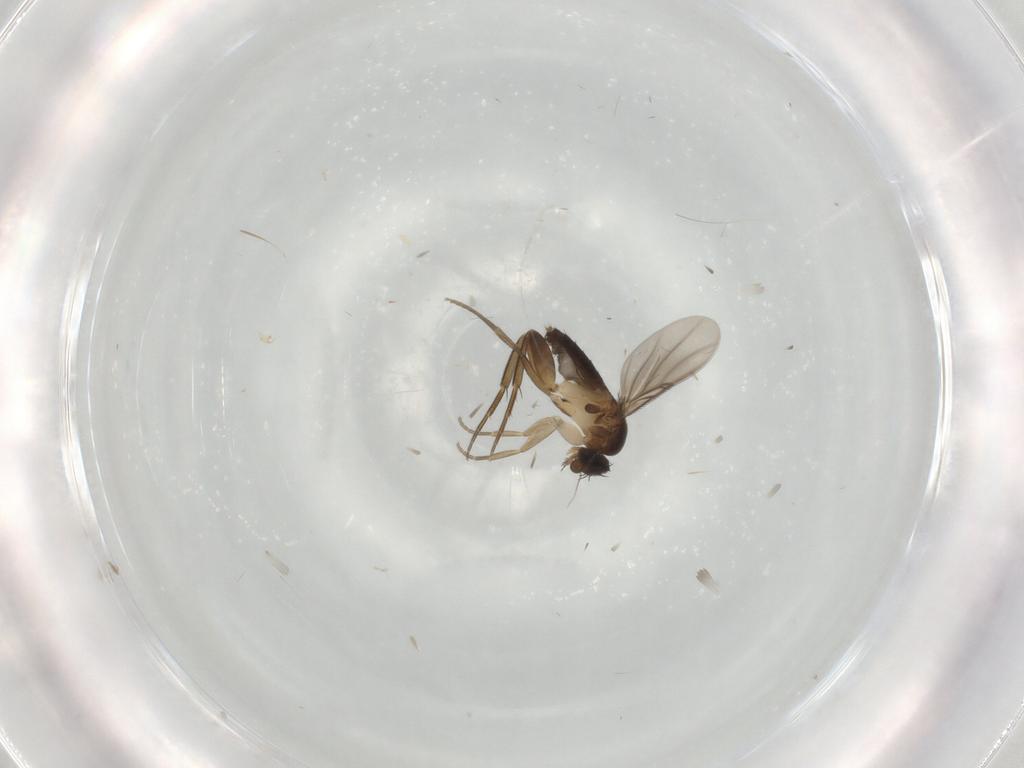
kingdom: Animalia
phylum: Arthropoda
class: Insecta
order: Diptera
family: Phoridae
